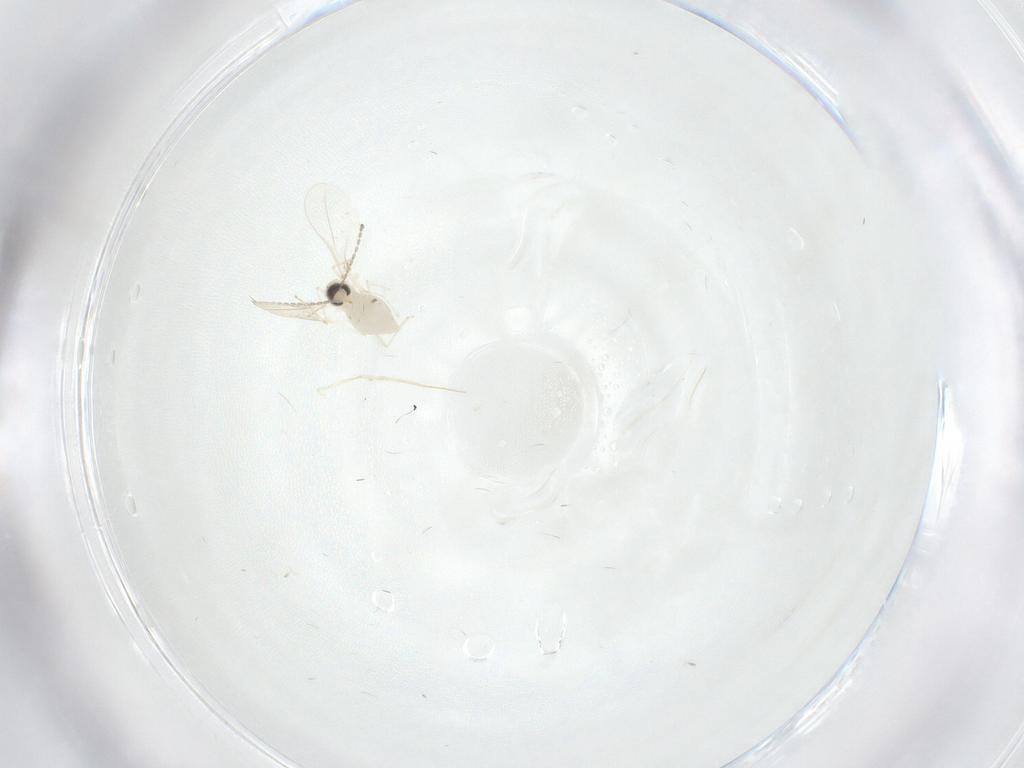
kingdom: Animalia
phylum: Arthropoda
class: Insecta
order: Diptera
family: Cecidomyiidae
